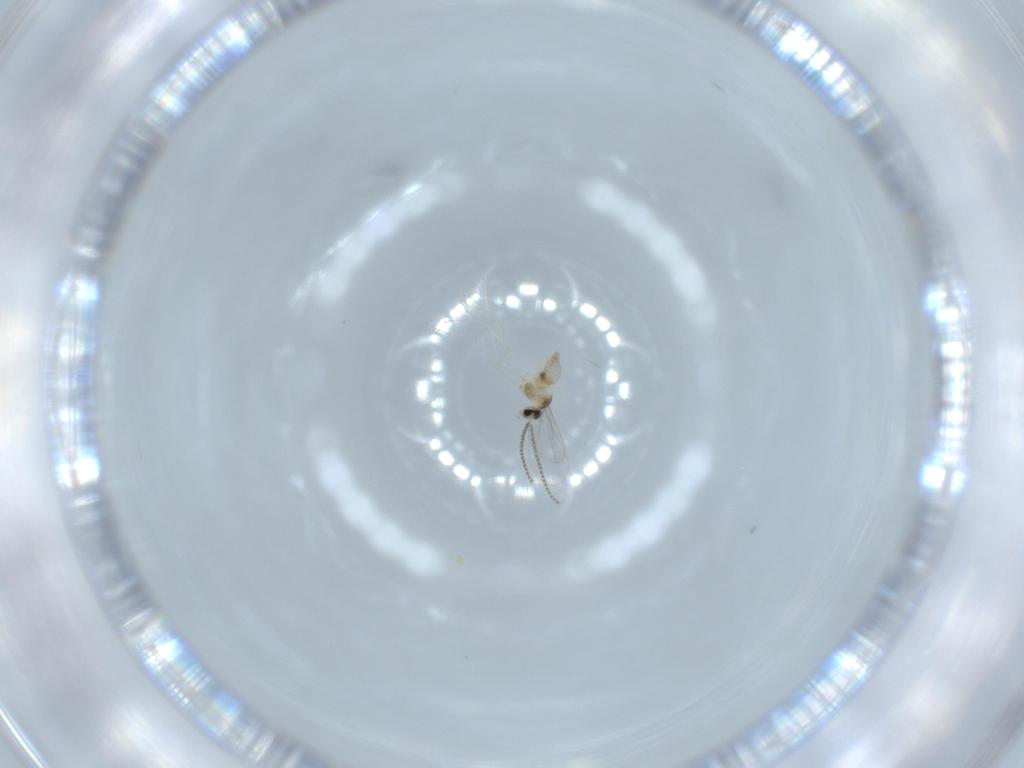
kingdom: Animalia
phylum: Arthropoda
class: Insecta
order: Diptera
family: Cecidomyiidae
